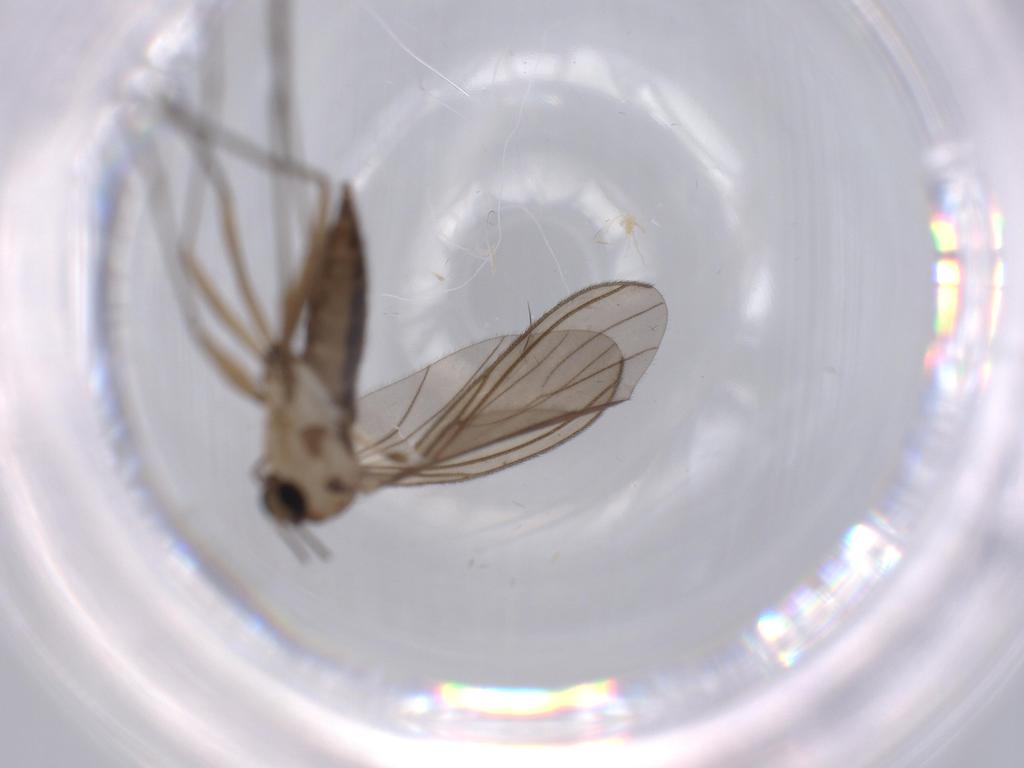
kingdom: Animalia
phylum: Arthropoda
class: Insecta
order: Diptera
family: Sciaridae
